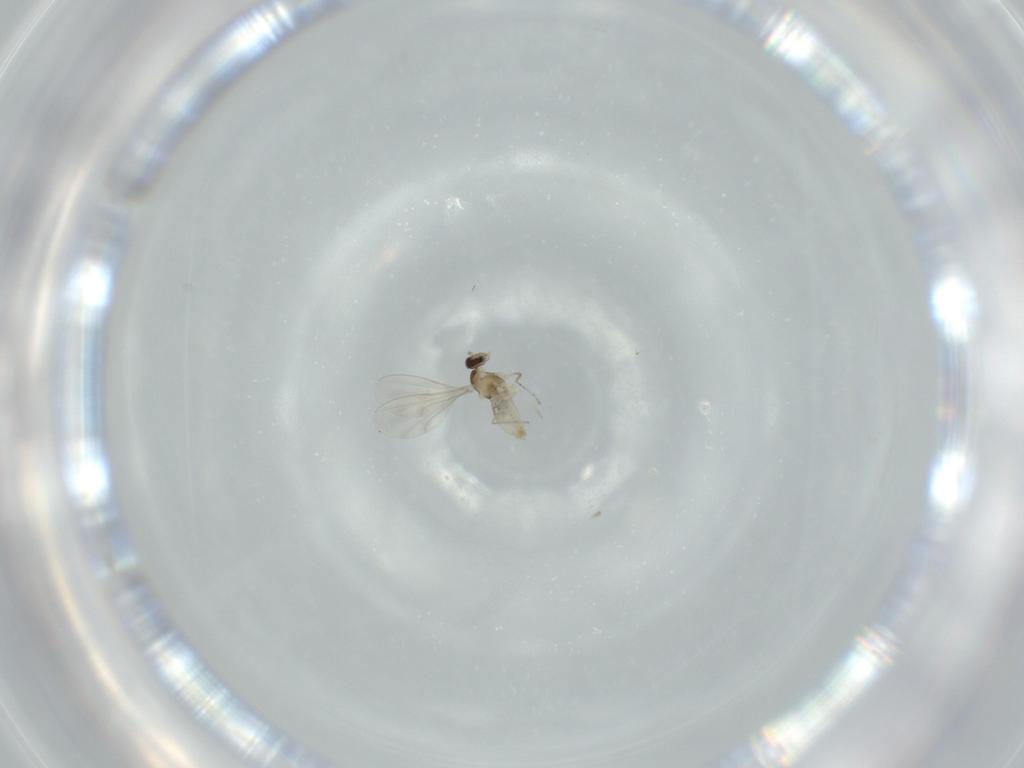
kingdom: Animalia
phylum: Arthropoda
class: Insecta
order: Diptera
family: Cecidomyiidae
